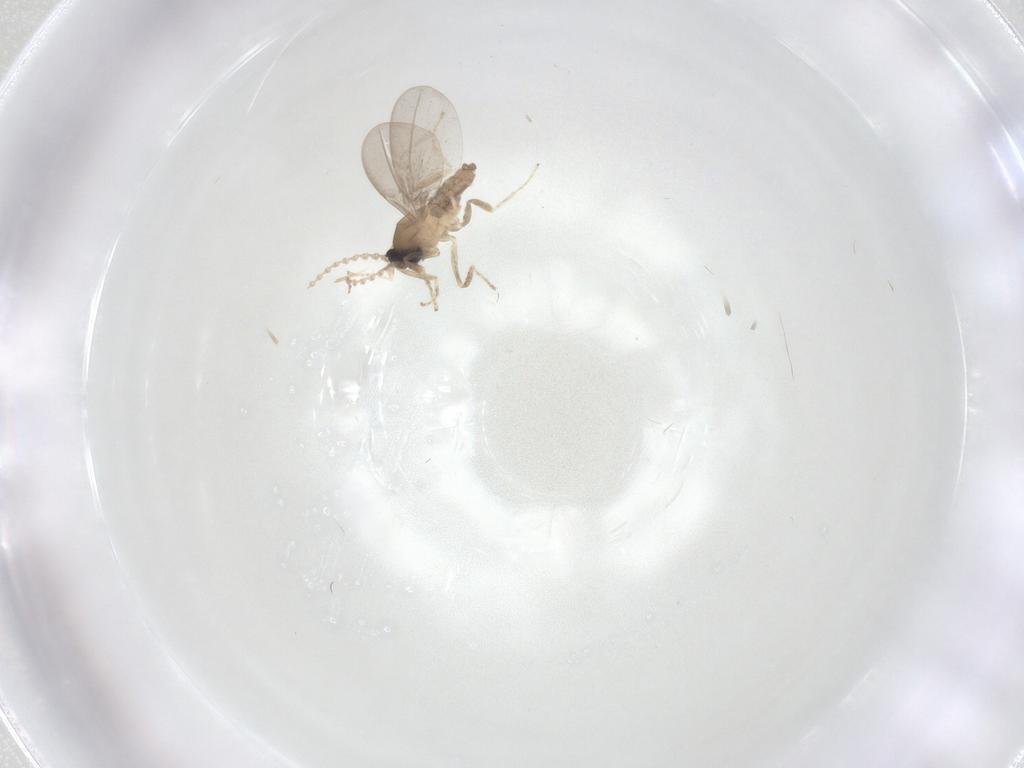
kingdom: Animalia
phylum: Arthropoda
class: Insecta
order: Diptera
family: Cecidomyiidae
